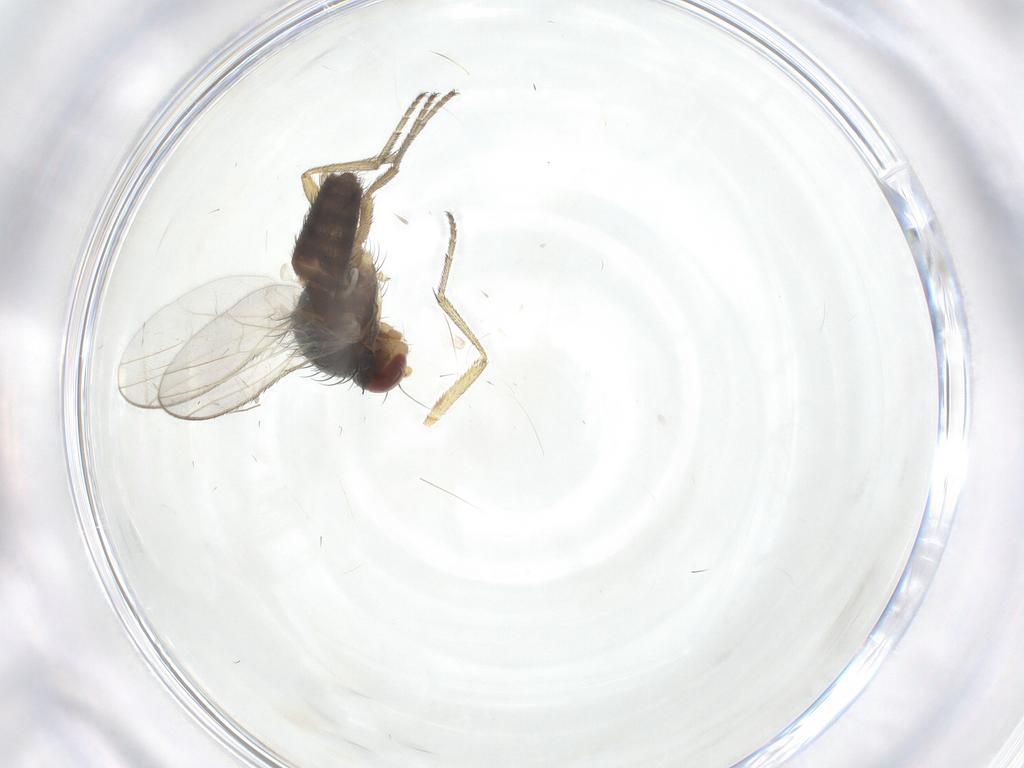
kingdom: Animalia
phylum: Arthropoda
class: Insecta
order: Diptera
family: Heleomyzidae
